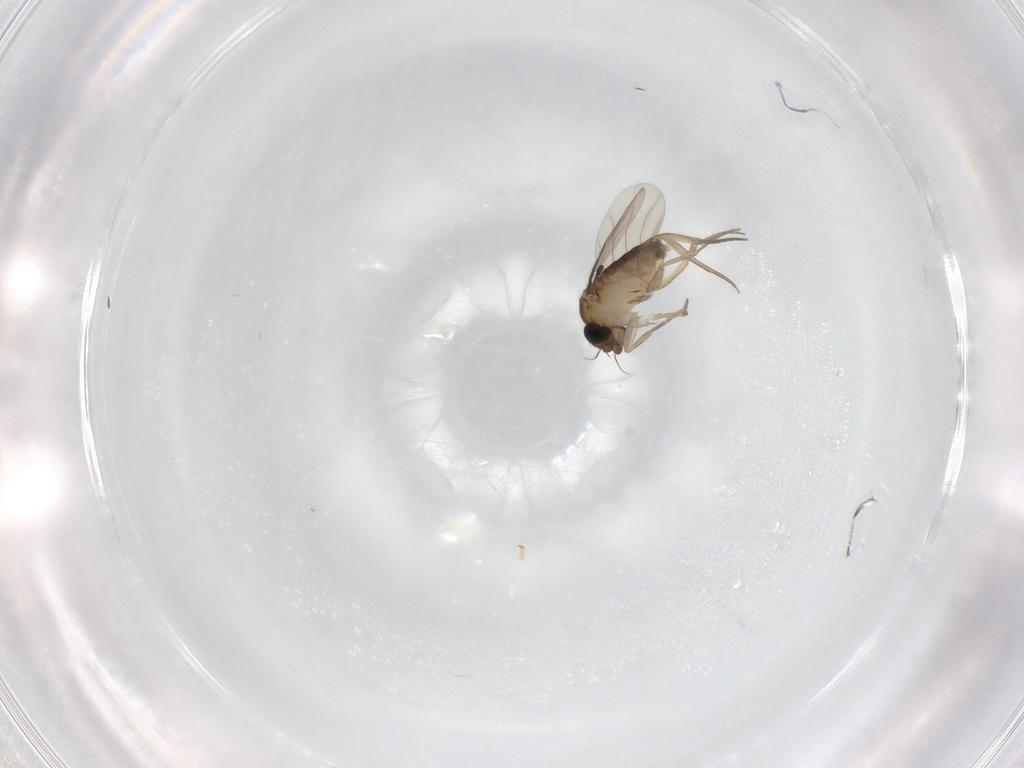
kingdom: Animalia
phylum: Arthropoda
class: Insecta
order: Diptera
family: Phoridae
